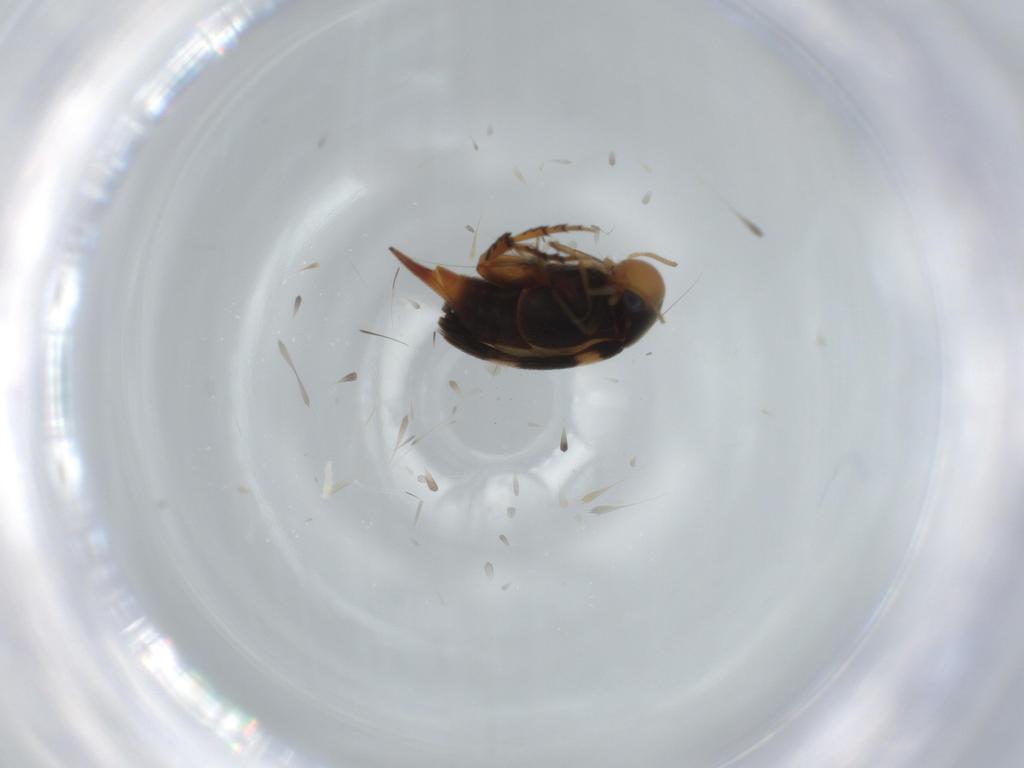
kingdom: Animalia
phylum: Arthropoda
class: Insecta
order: Coleoptera
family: Mordellidae
